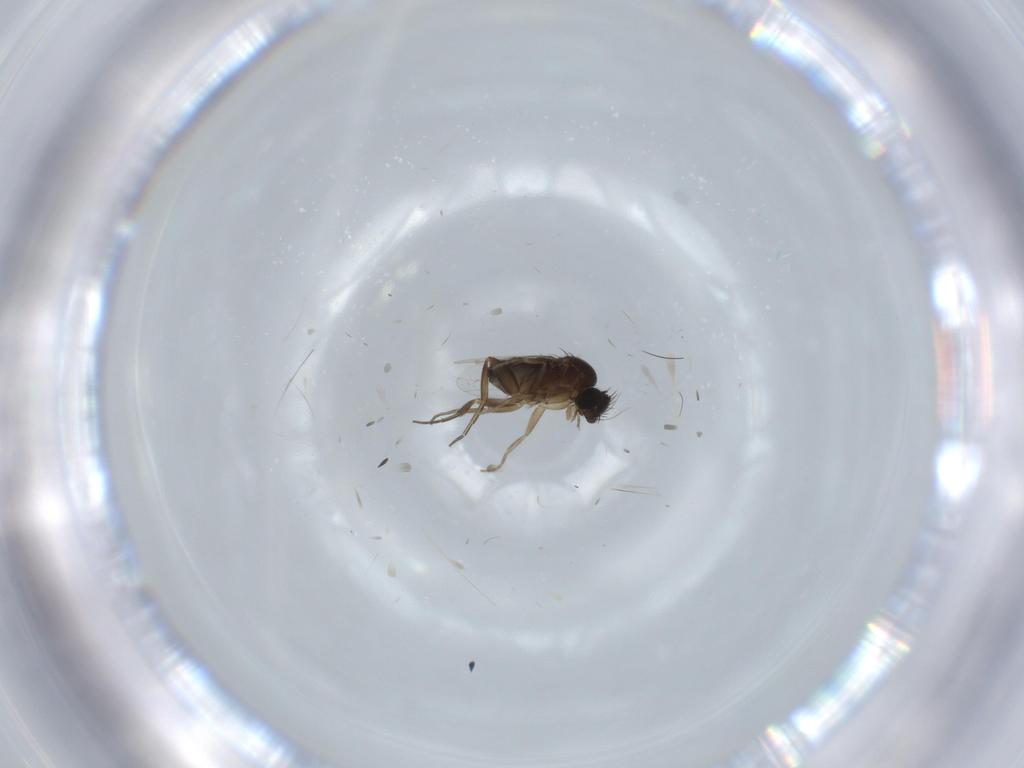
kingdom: Animalia
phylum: Arthropoda
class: Insecta
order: Diptera
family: Phoridae
